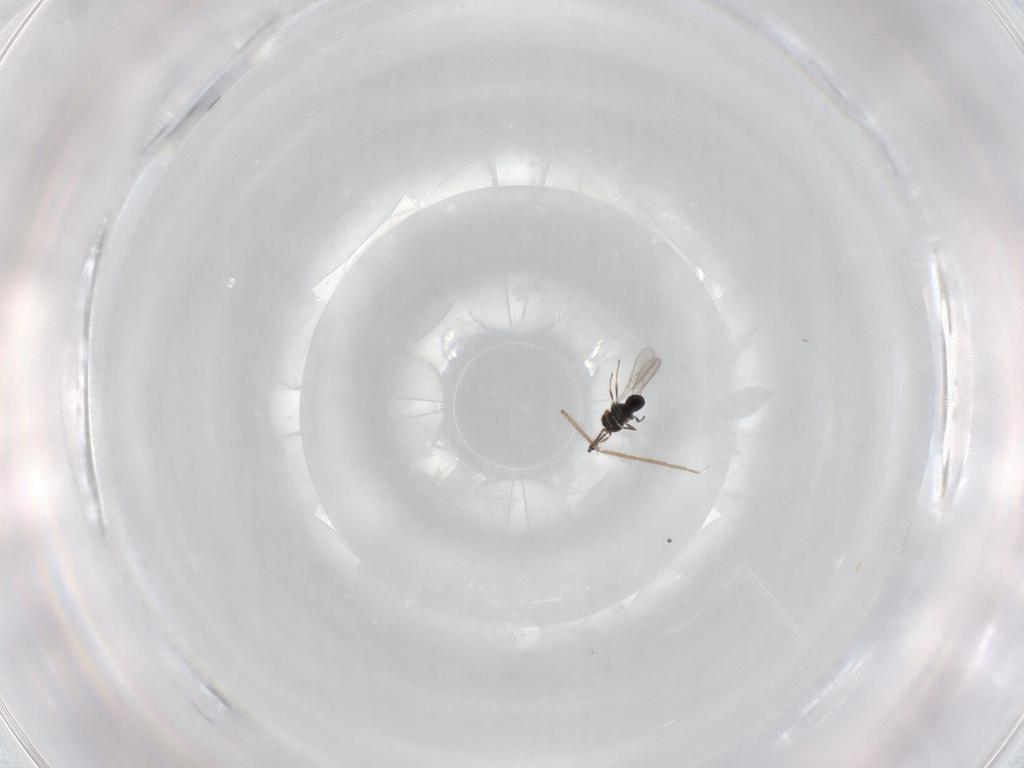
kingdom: Animalia
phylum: Arthropoda
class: Insecta
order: Hymenoptera
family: Scelionidae
